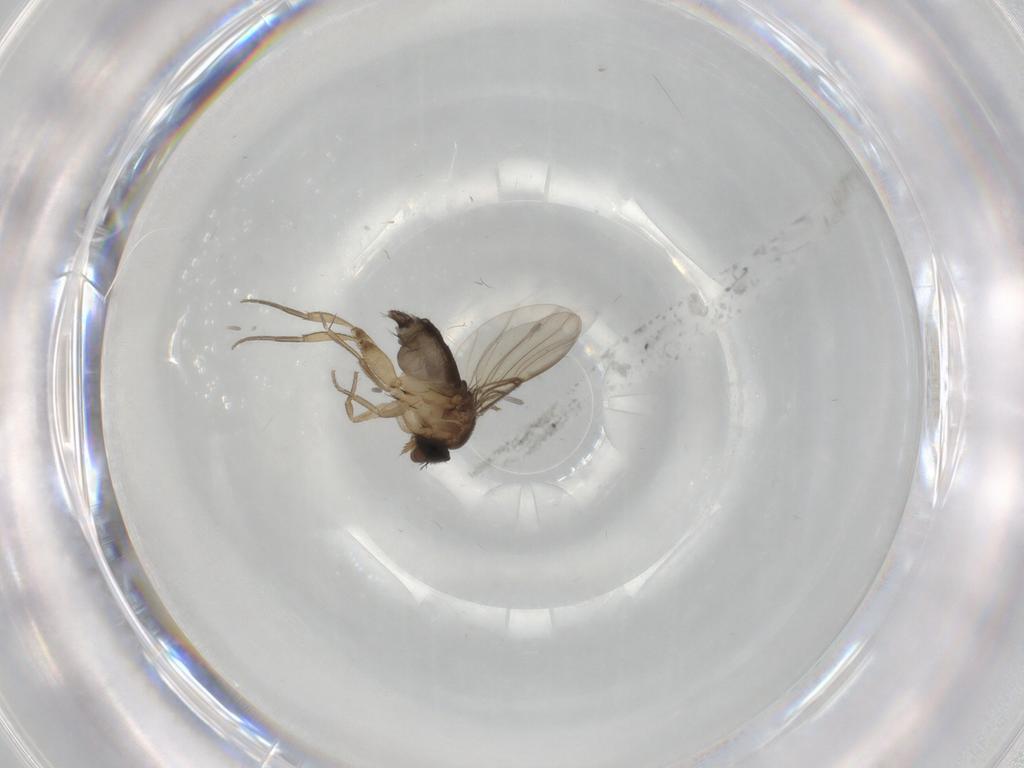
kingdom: Animalia
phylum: Arthropoda
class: Insecta
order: Diptera
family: Phoridae
